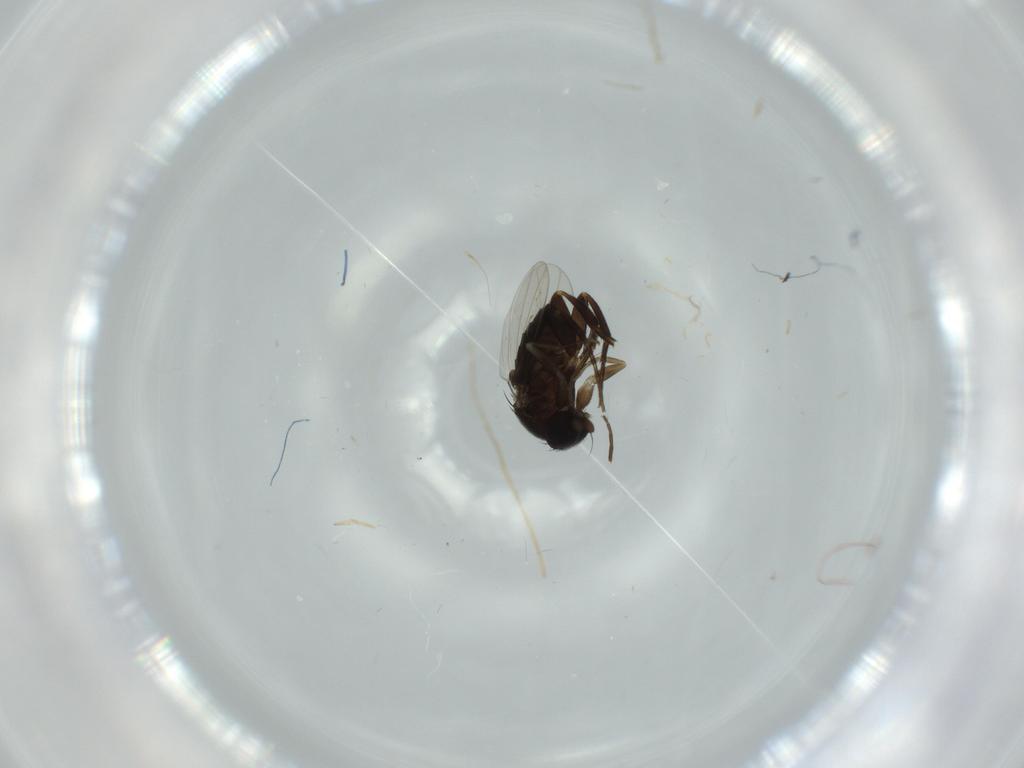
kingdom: Animalia
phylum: Arthropoda
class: Insecta
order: Diptera
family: Phoridae
